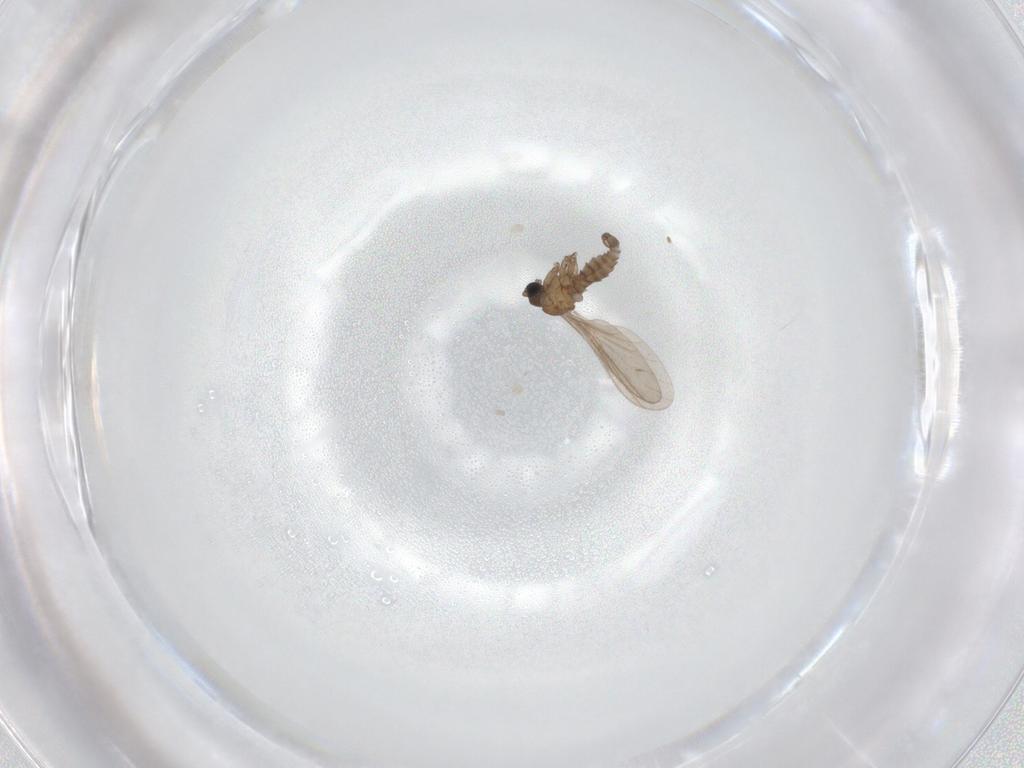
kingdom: Animalia
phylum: Arthropoda
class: Insecta
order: Diptera
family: Sciaridae
